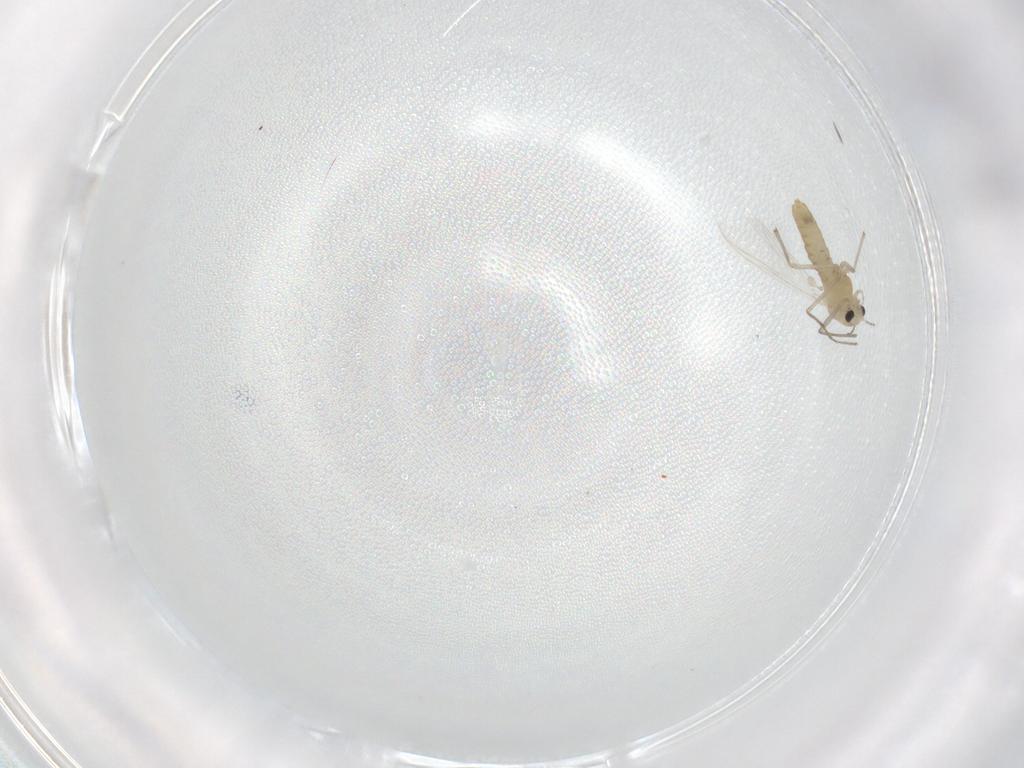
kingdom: Animalia
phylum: Arthropoda
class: Insecta
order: Diptera
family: Chironomidae
